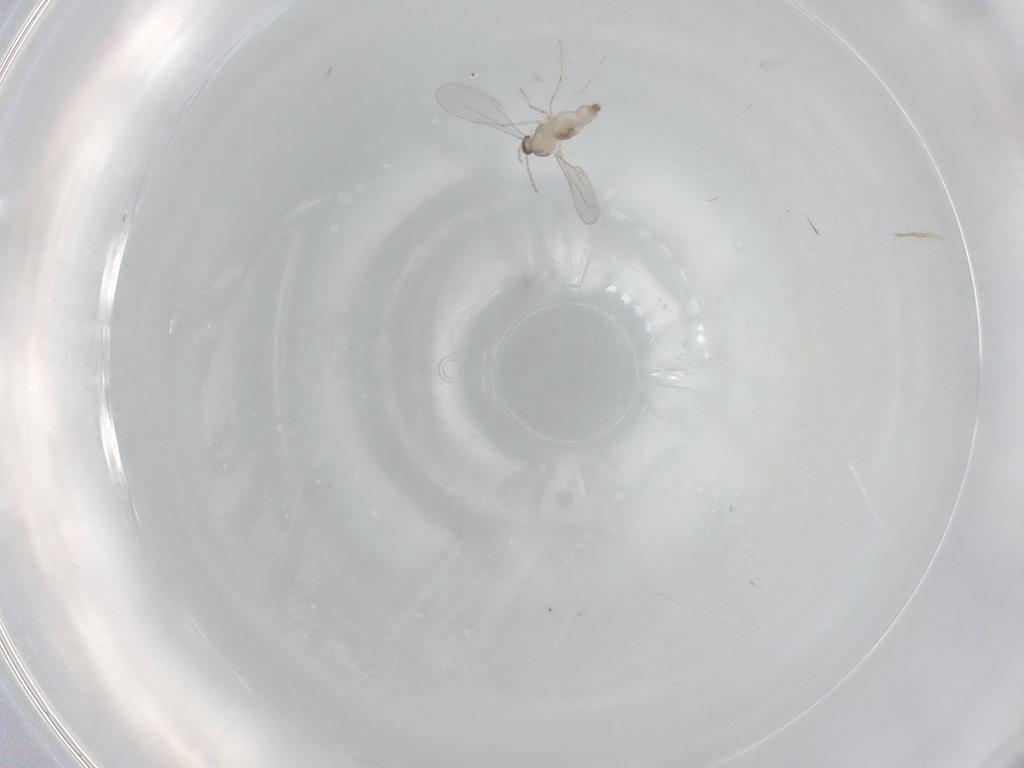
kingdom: Animalia
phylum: Arthropoda
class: Insecta
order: Diptera
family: Cecidomyiidae
